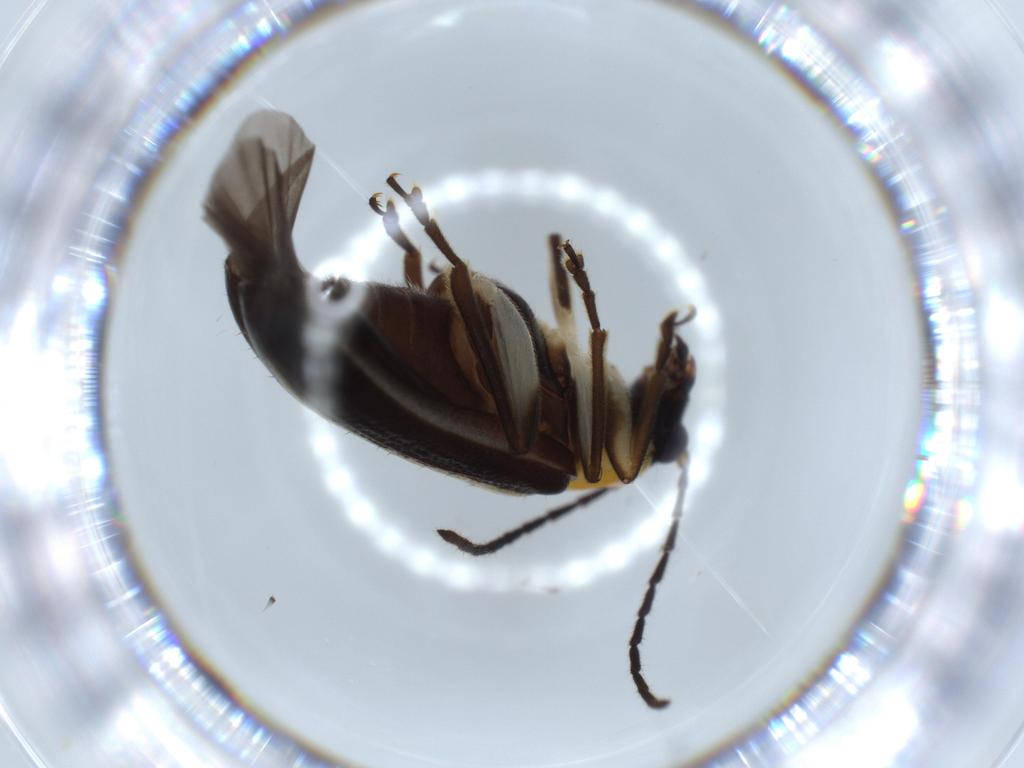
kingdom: Animalia
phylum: Arthropoda
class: Insecta
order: Coleoptera
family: Chrysomelidae
